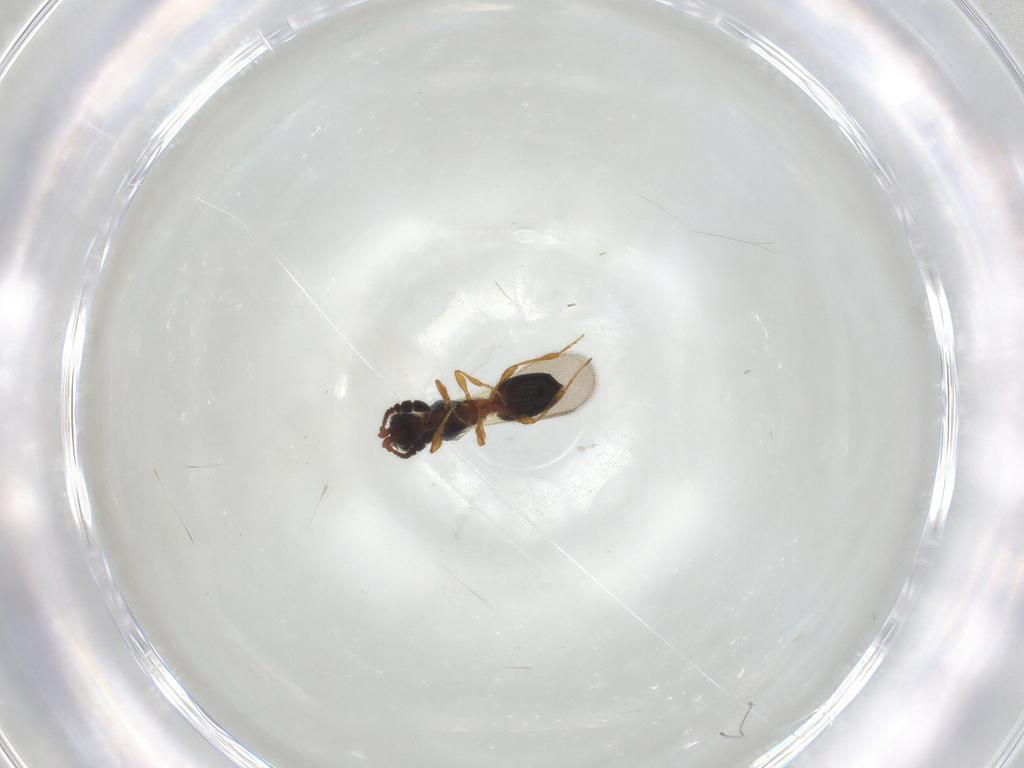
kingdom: Animalia
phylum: Arthropoda
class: Insecta
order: Hymenoptera
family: Diapriidae
